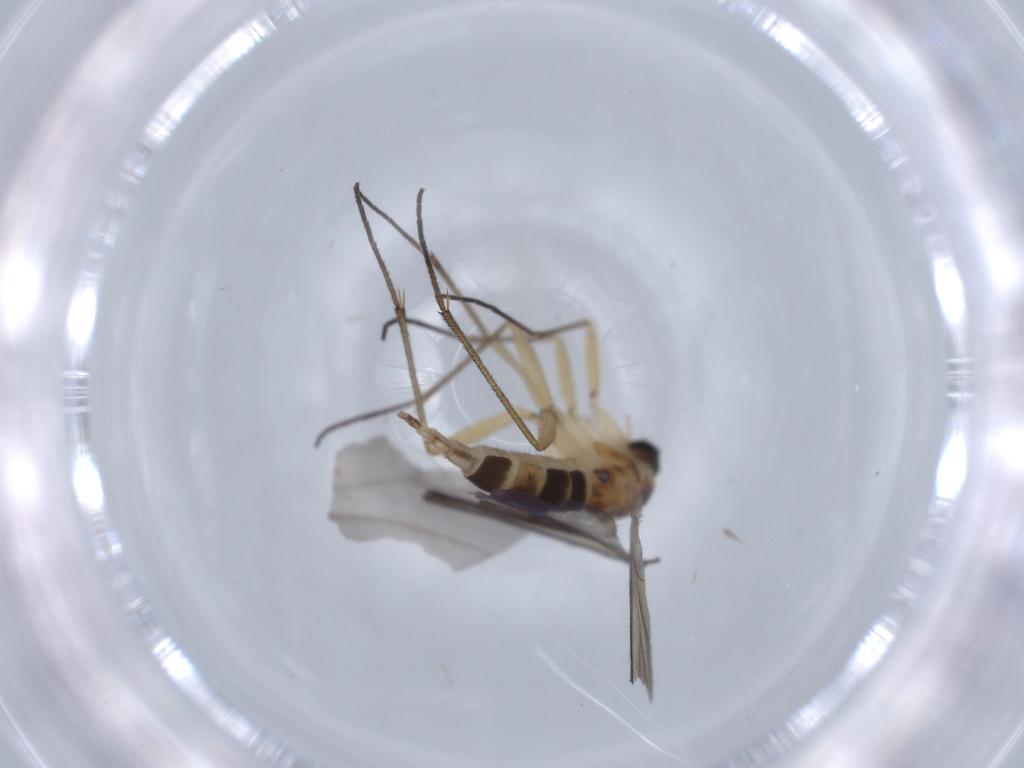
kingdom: Animalia
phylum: Arthropoda
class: Insecta
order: Diptera
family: Sciaridae
